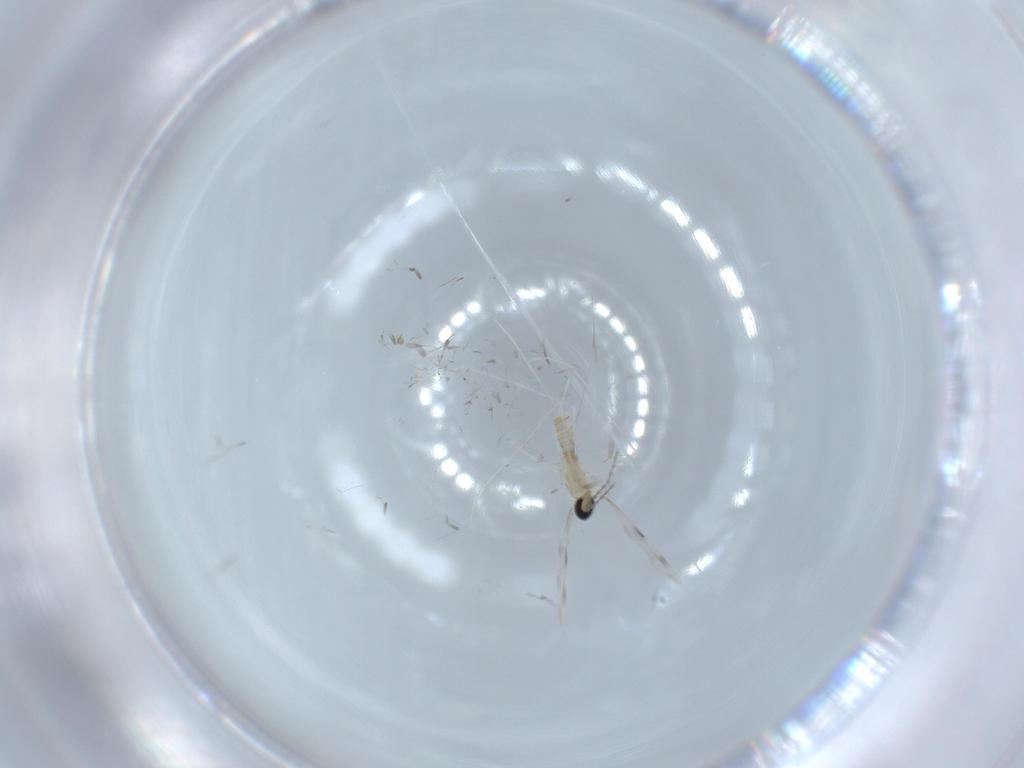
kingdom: Animalia
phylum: Arthropoda
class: Insecta
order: Diptera
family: Cecidomyiidae
